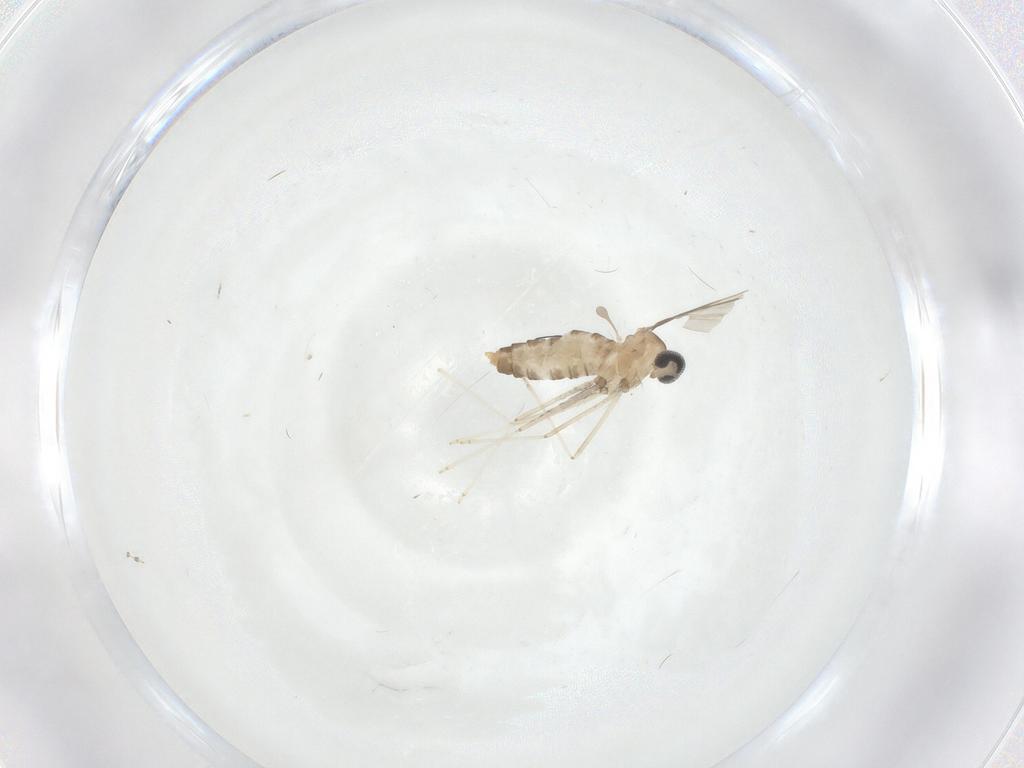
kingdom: Animalia
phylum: Arthropoda
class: Insecta
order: Diptera
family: Cecidomyiidae
